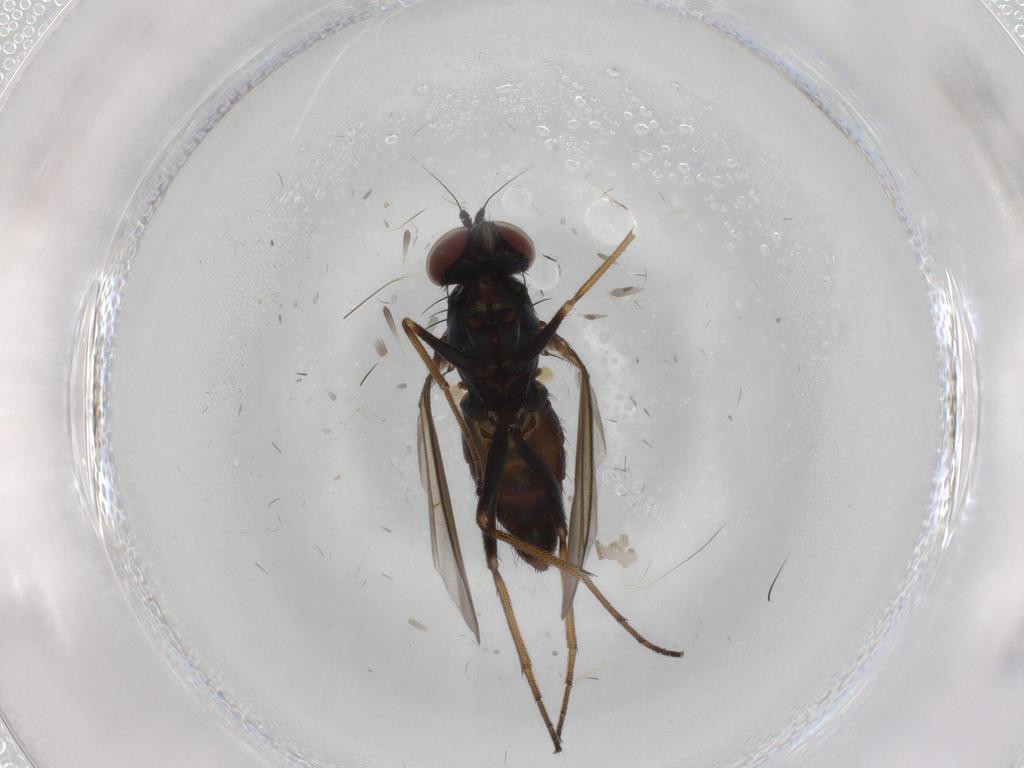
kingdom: Animalia
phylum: Arthropoda
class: Insecta
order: Diptera
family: Dolichopodidae
